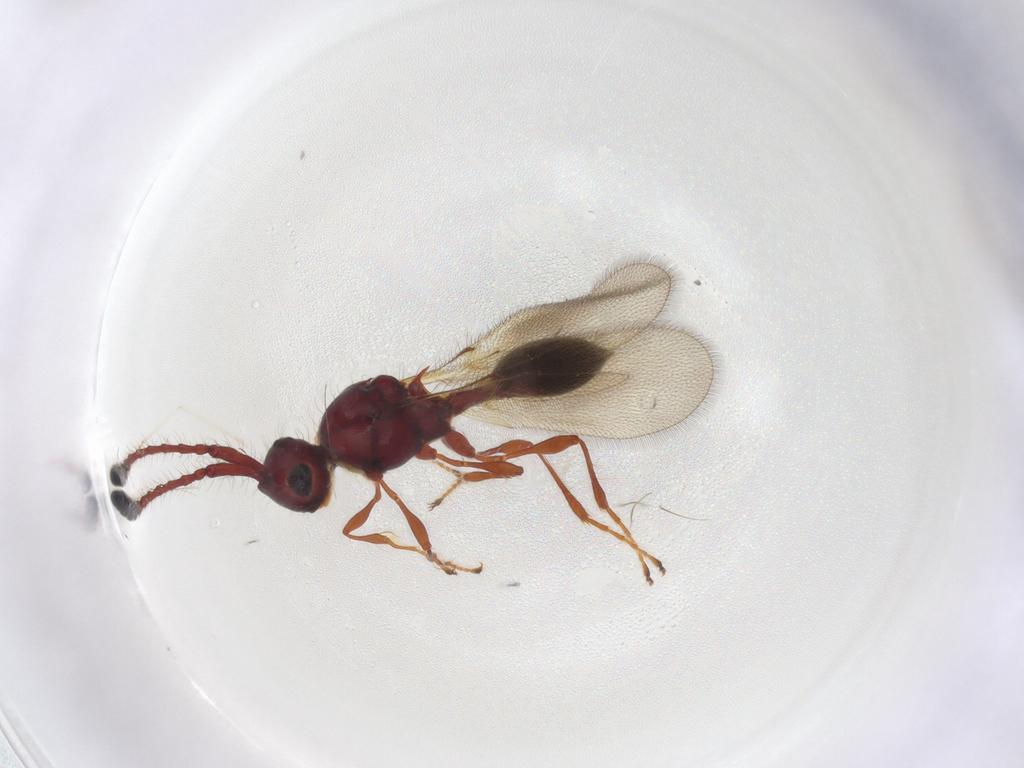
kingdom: Animalia
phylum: Arthropoda
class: Insecta
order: Hymenoptera
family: Diapriidae
